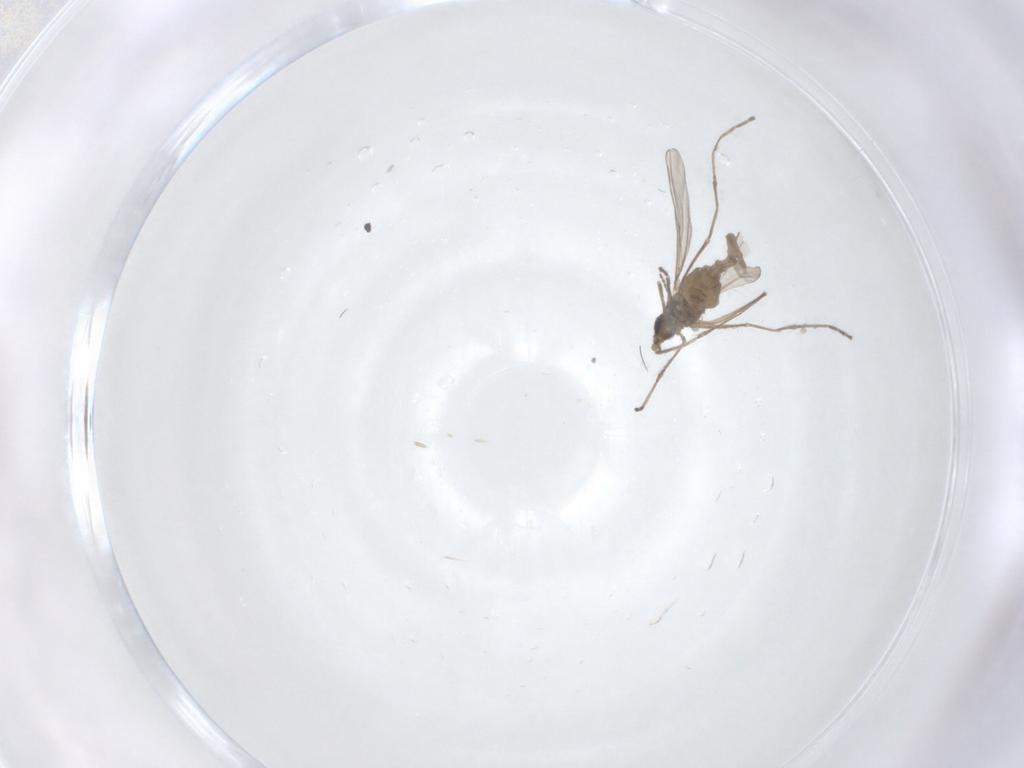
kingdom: Animalia
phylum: Arthropoda
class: Insecta
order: Diptera
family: Cecidomyiidae
